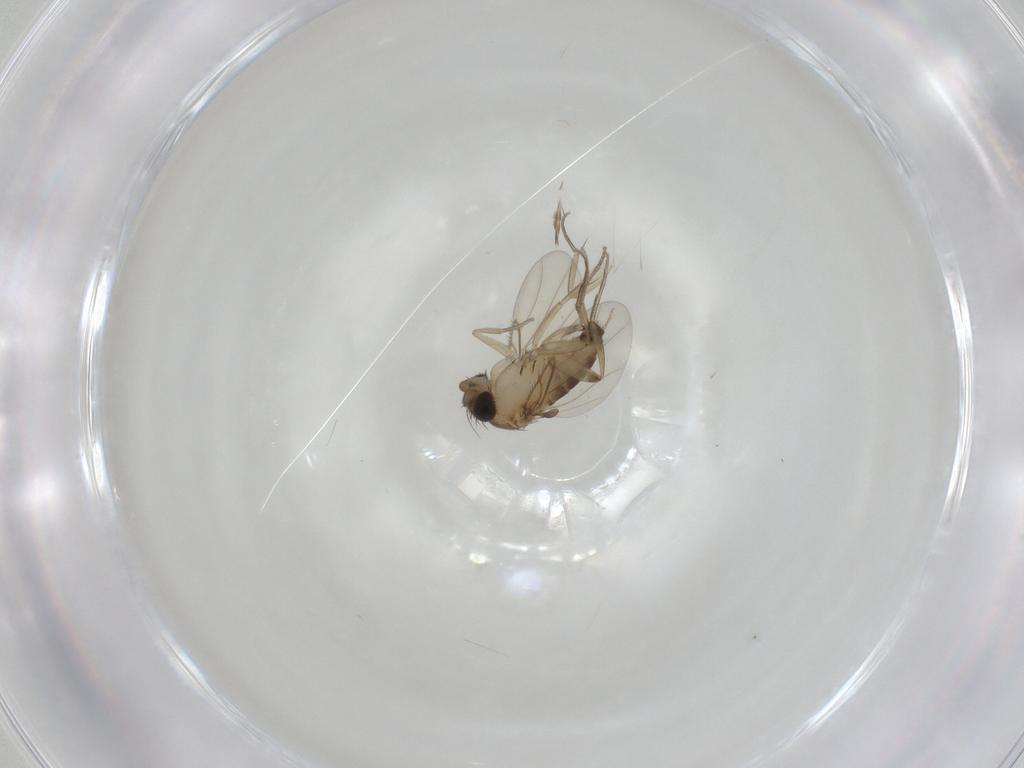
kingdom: Animalia
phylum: Arthropoda
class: Insecta
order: Diptera
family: Phoridae
